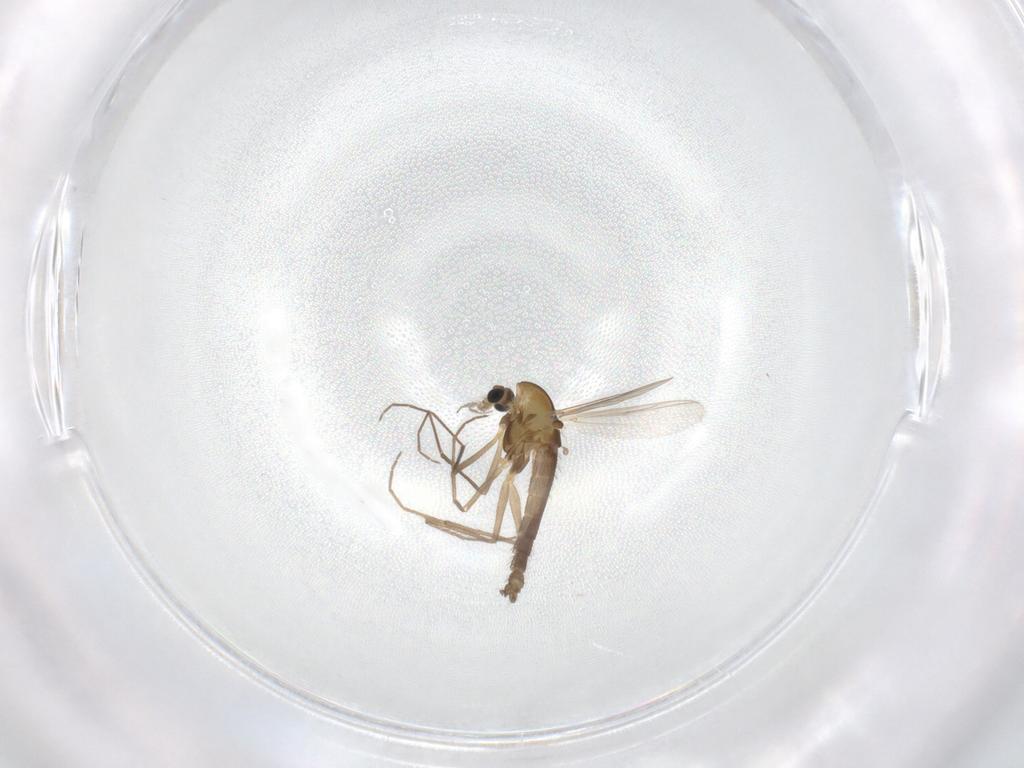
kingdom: Animalia
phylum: Arthropoda
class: Insecta
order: Diptera
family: Chironomidae
